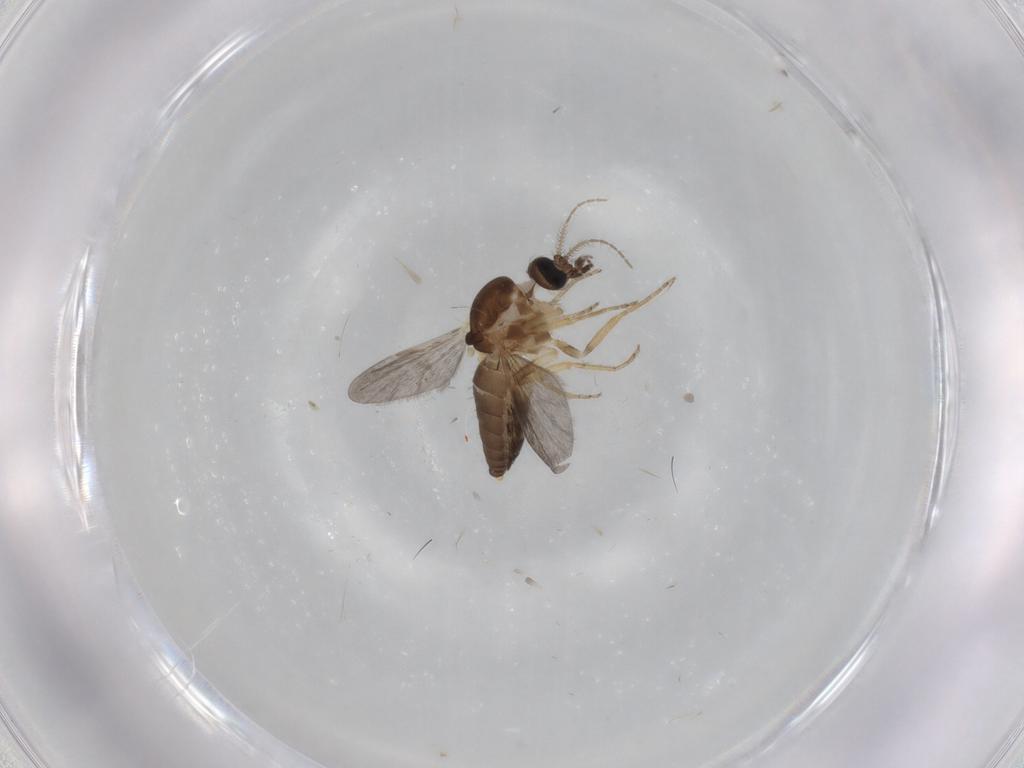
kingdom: Animalia
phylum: Arthropoda
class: Insecta
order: Diptera
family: Ceratopogonidae
